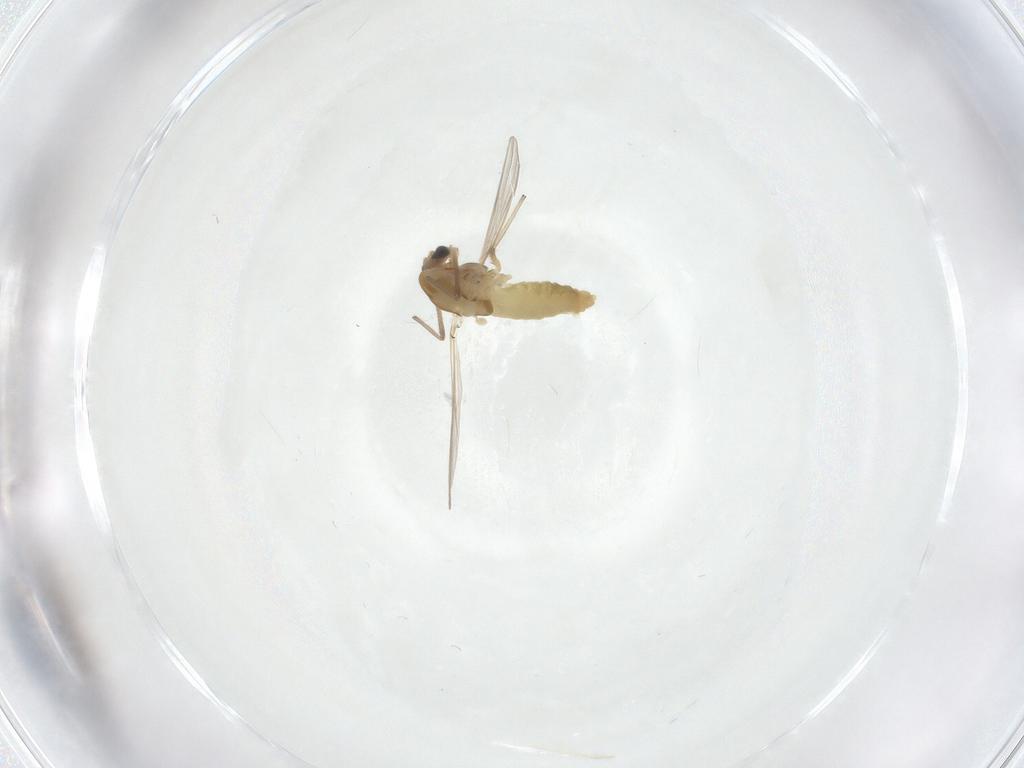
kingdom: Animalia
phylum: Arthropoda
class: Insecta
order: Diptera
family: Chironomidae
